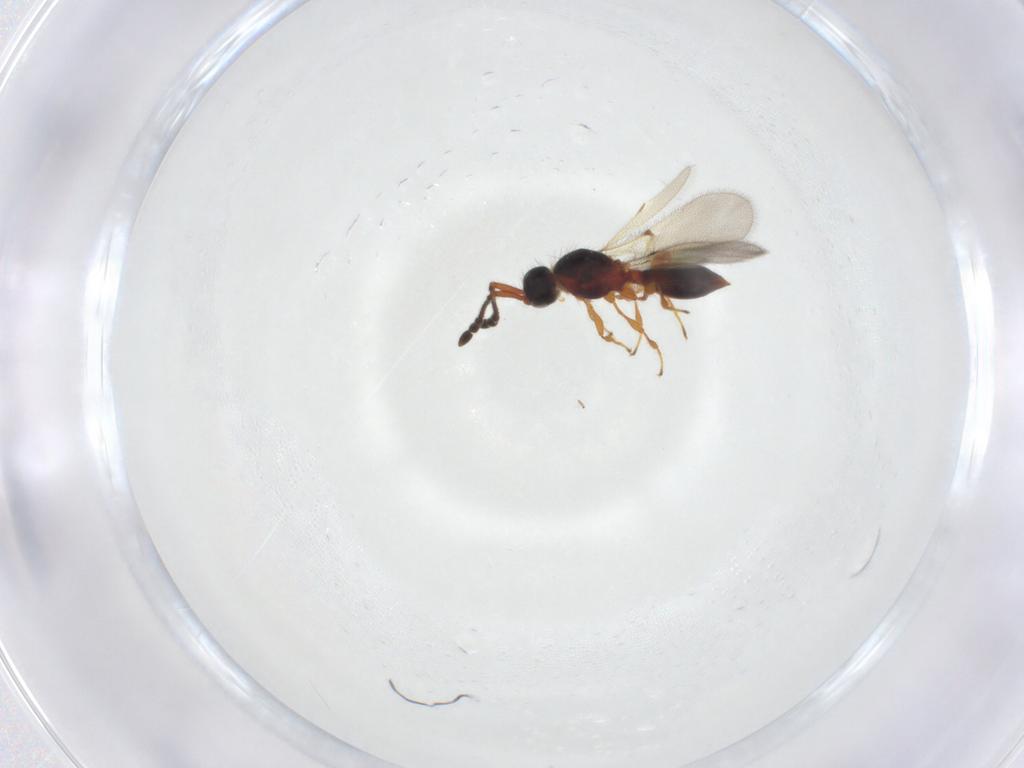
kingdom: Animalia
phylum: Arthropoda
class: Insecta
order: Hymenoptera
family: Diapriidae
